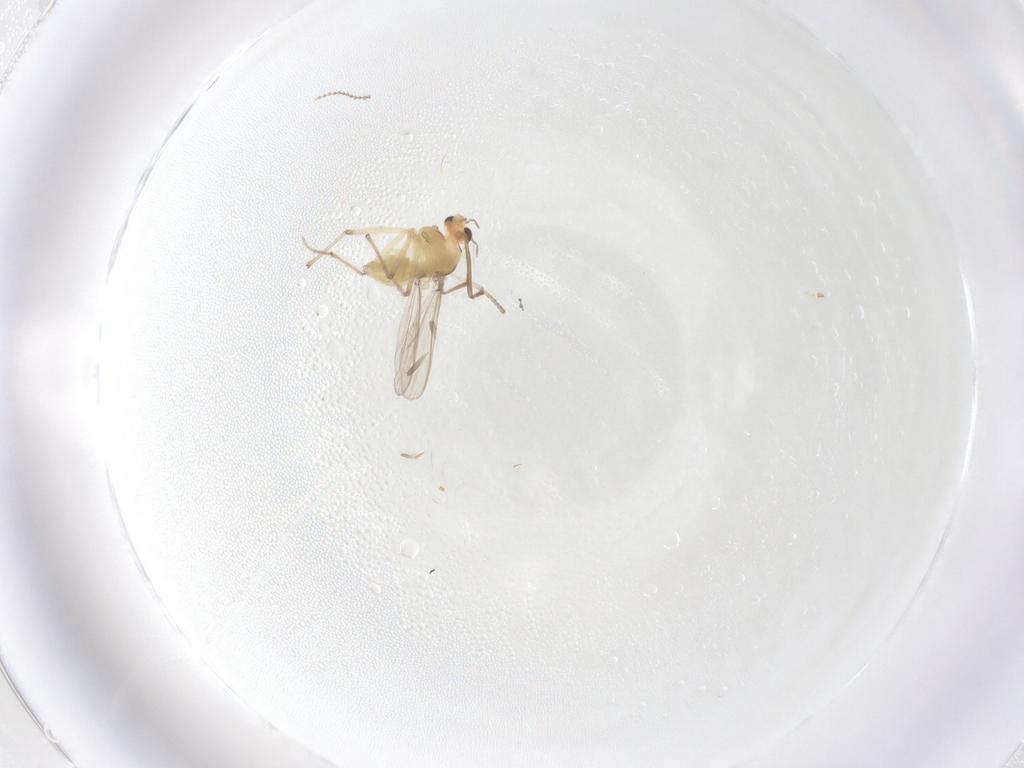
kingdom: Animalia
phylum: Arthropoda
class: Insecta
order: Diptera
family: Chironomidae
